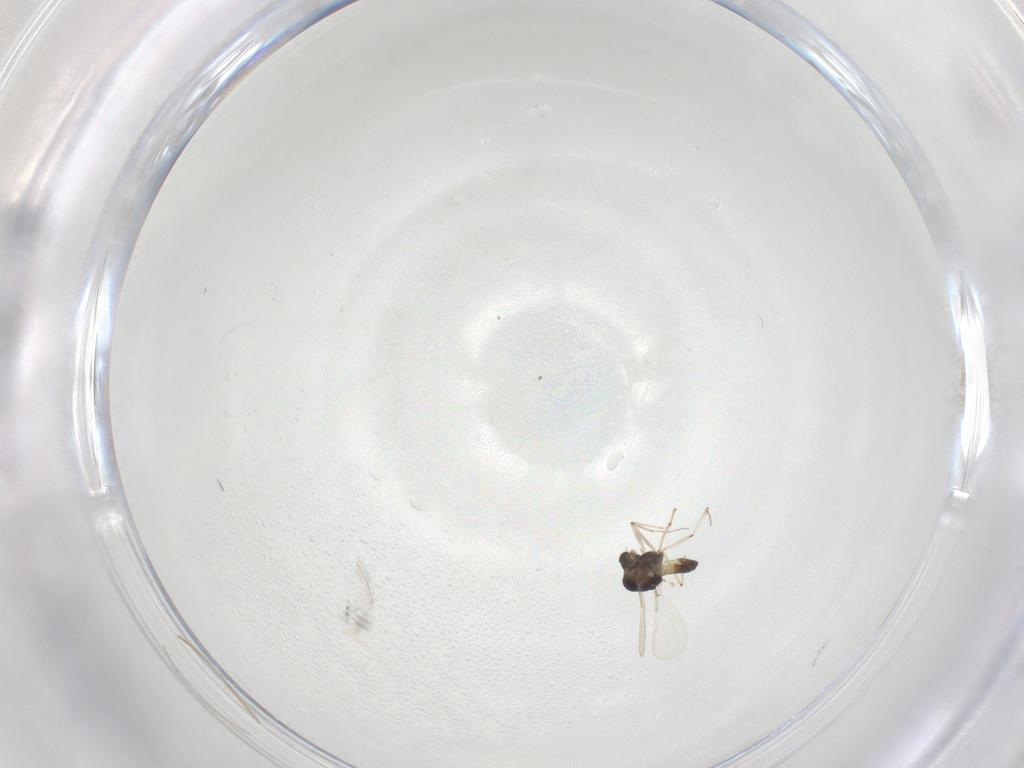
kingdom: Animalia
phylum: Arthropoda
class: Insecta
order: Diptera
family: Chironomidae
